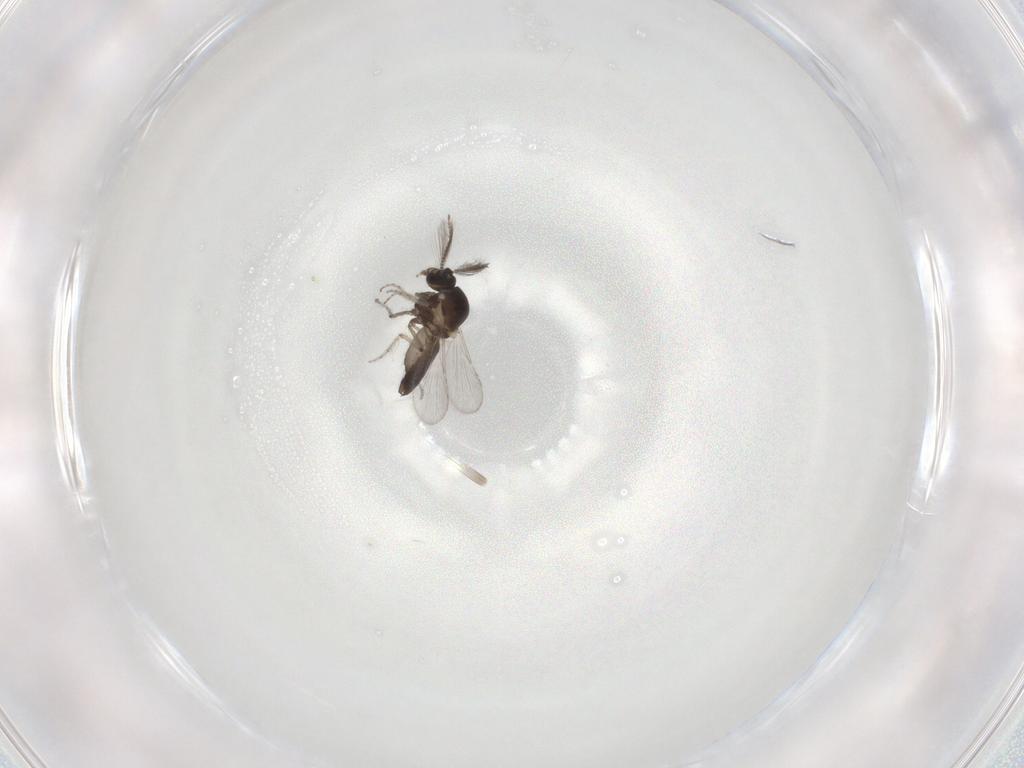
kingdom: Animalia
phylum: Arthropoda
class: Insecta
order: Diptera
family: Ceratopogonidae
